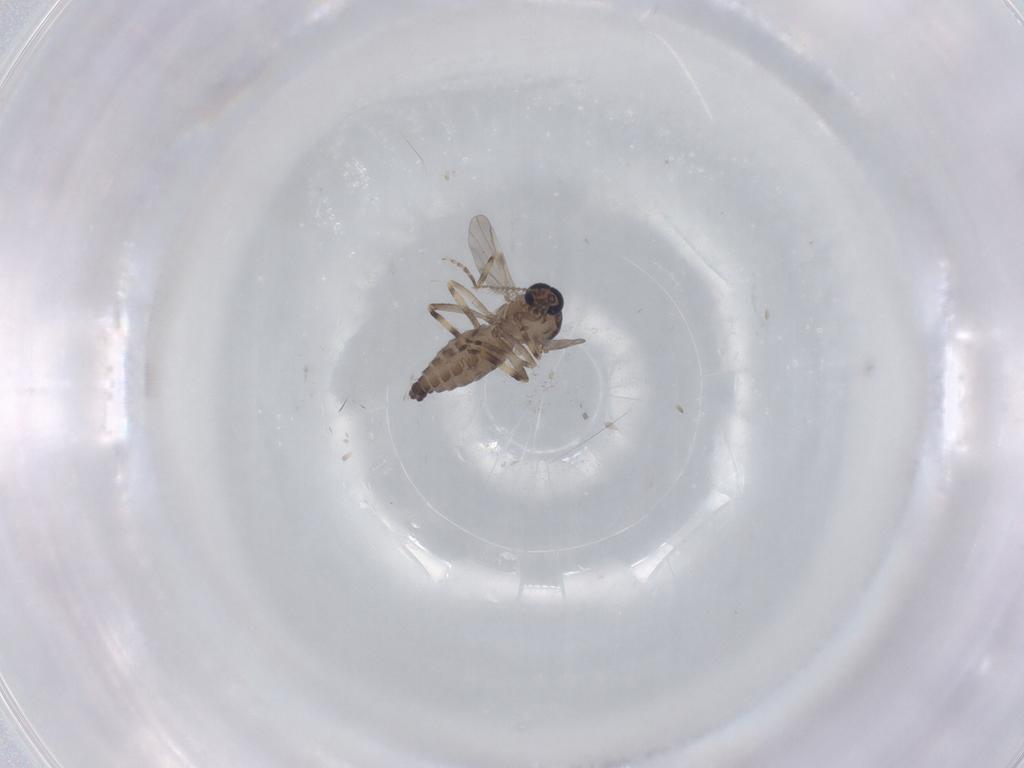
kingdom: Animalia
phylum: Arthropoda
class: Insecta
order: Diptera
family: Ceratopogonidae
